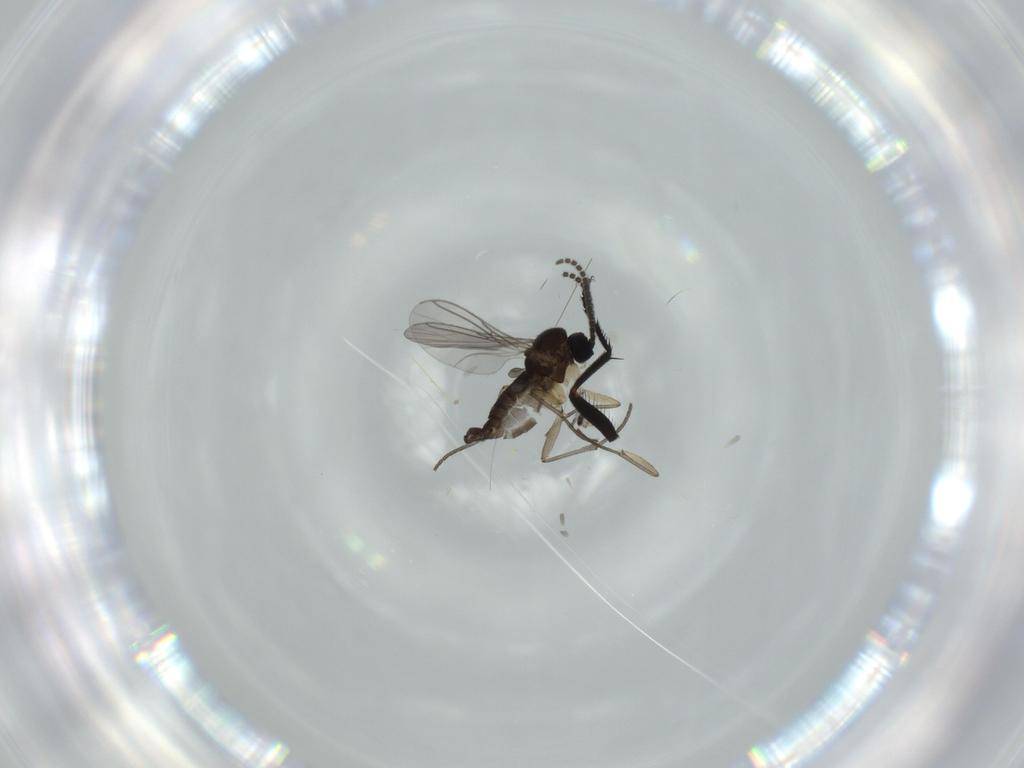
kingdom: Animalia
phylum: Arthropoda
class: Insecta
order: Diptera
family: Sciaridae
